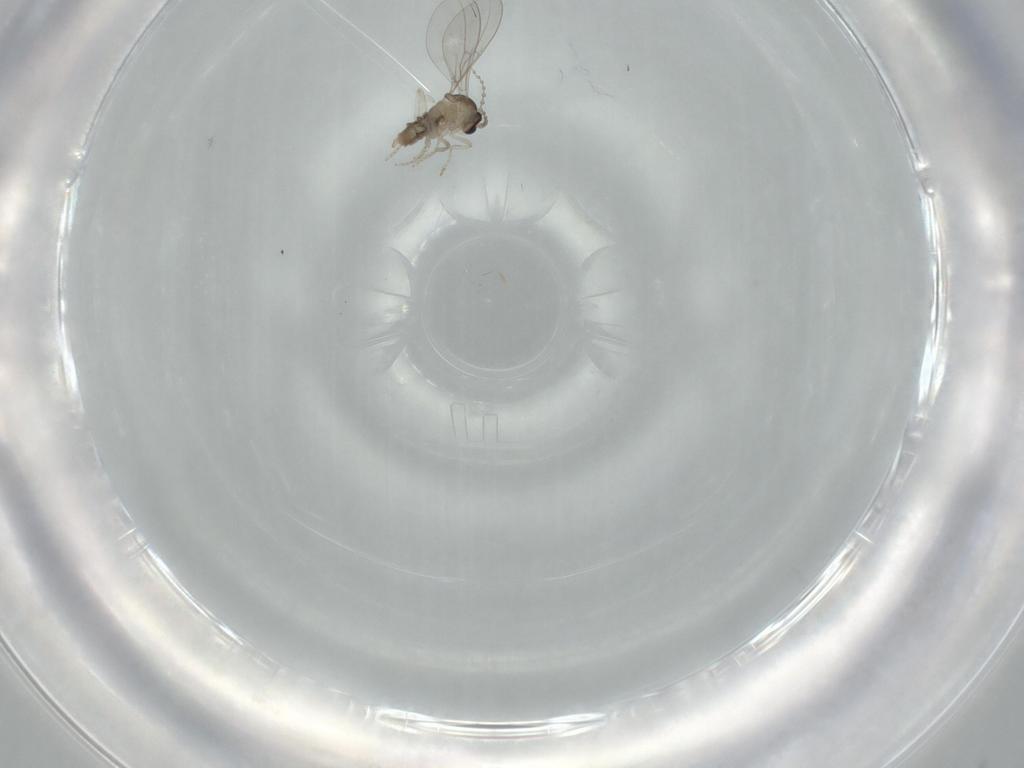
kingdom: Animalia
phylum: Arthropoda
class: Insecta
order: Diptera
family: Cecidomyiidae
